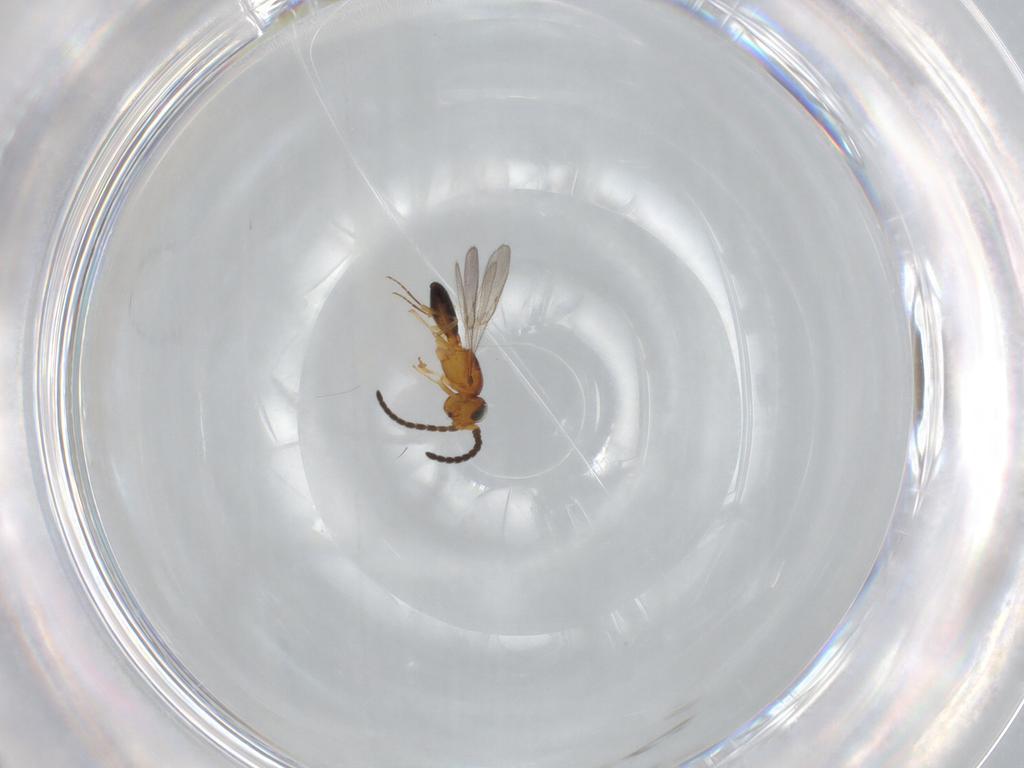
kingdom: Animalia
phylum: Arthropoda
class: Insecta
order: Hymenoptera
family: Scelionidae
